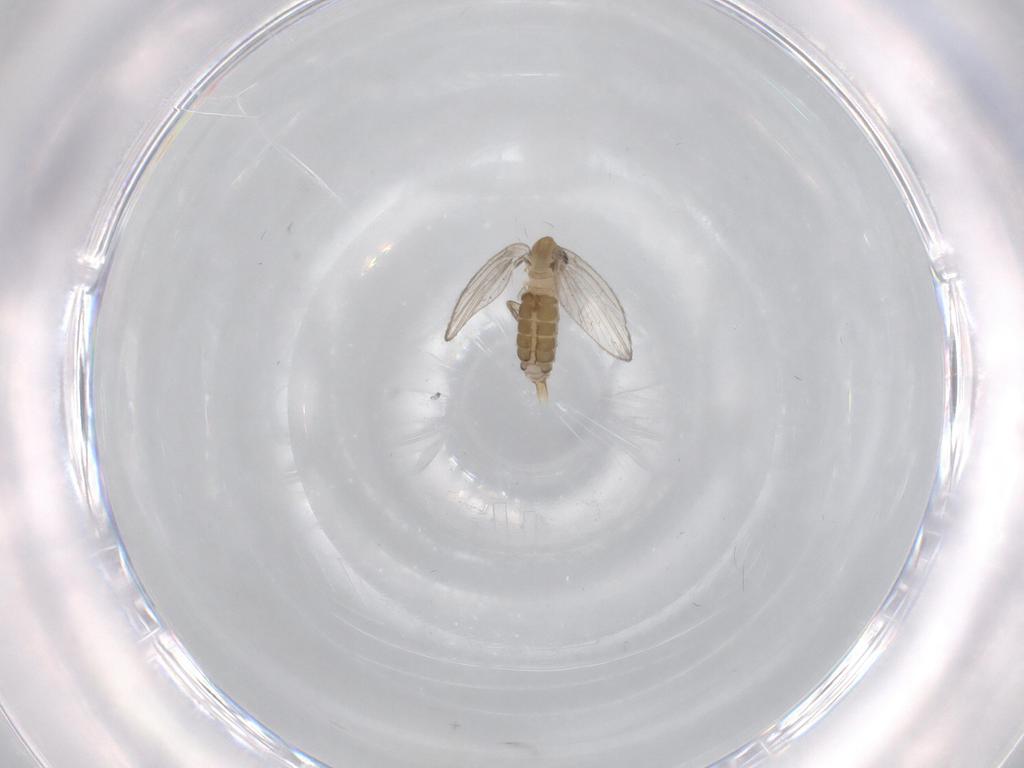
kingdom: Animalia
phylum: Arthropoda
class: Insecta
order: Diptera
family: Psychodidae
